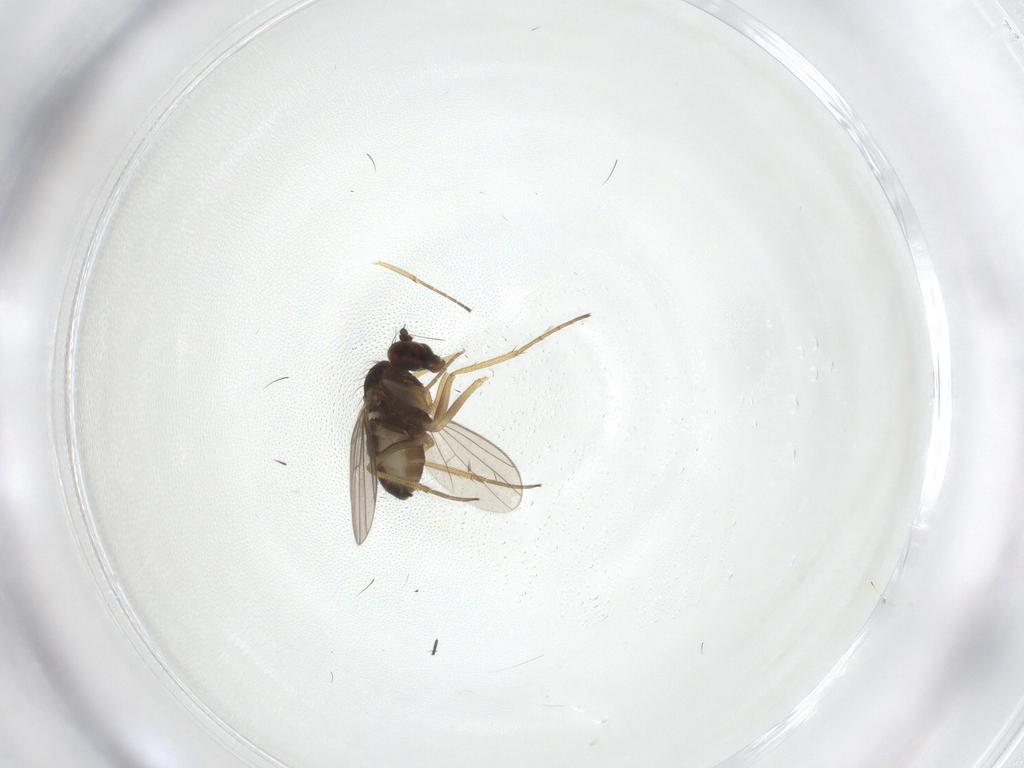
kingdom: Animalia
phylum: Arthropoda
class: Insecta
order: Diptera
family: Dolichopodidae
